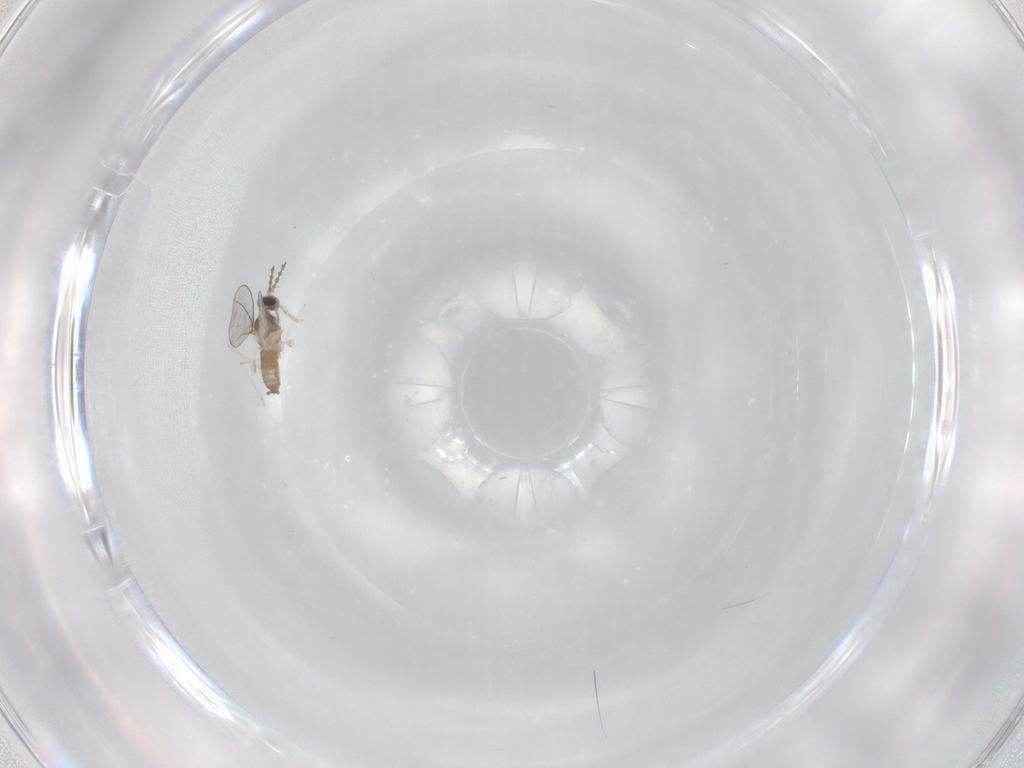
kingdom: Animalia
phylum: Arthropoda
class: Insecta
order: Diptera
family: Cecidomyiidae
